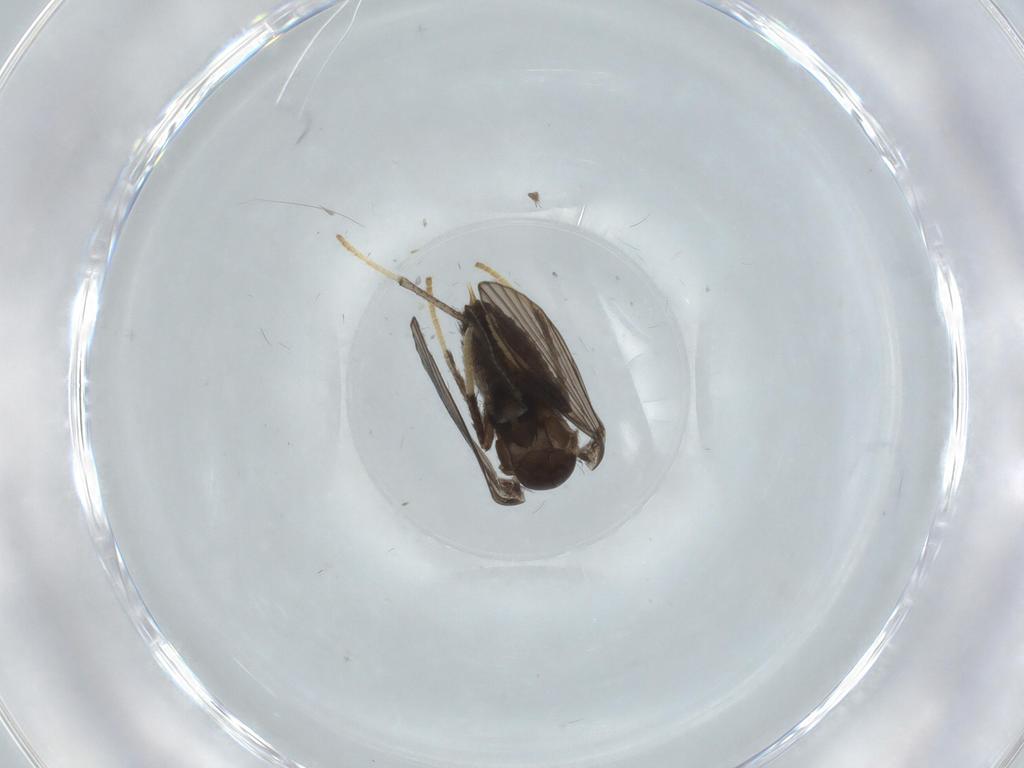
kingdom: Animalia
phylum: Arthropoda
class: Insecta
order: Diptera
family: Psychodidae
